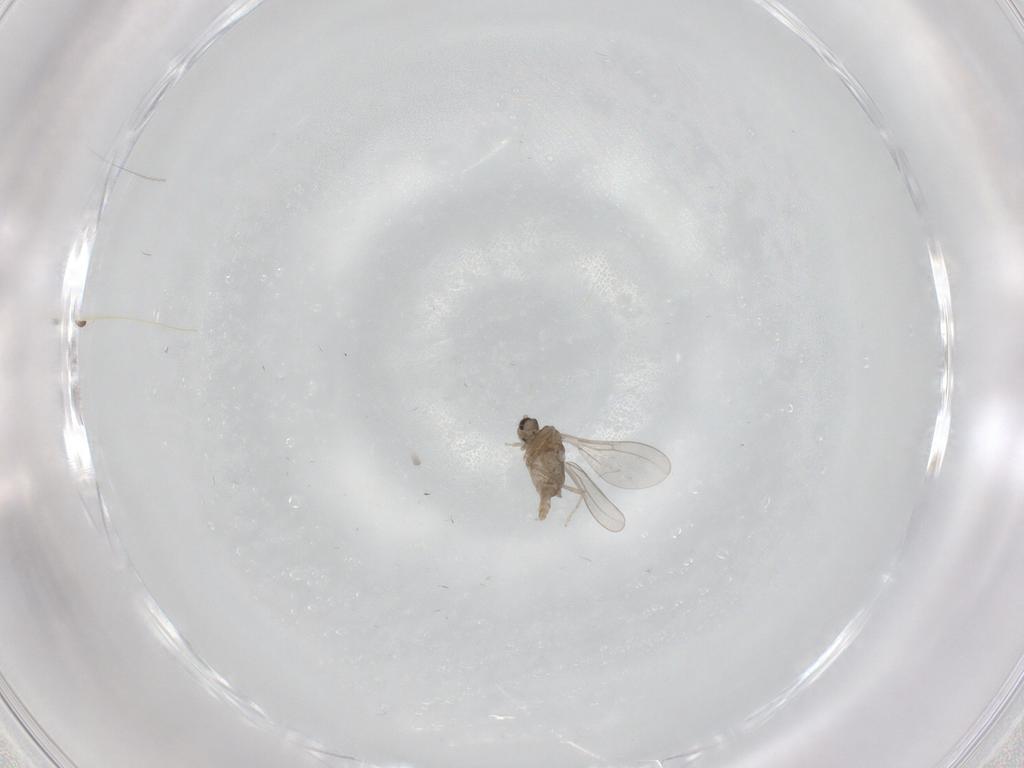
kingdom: Animalia
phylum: Arthropoda
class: Insecta
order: Diptera
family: Cecidomyiidae
